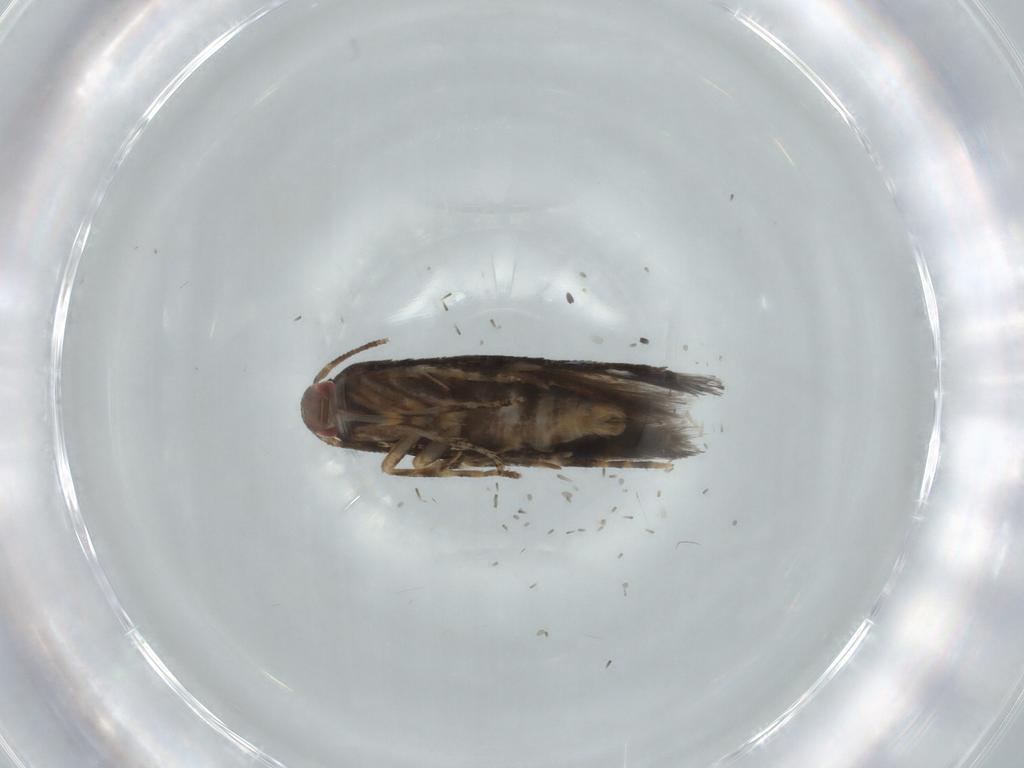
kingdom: Animalia
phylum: Arthropoda
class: Insecta
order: Lepidoptera
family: Momphidae
